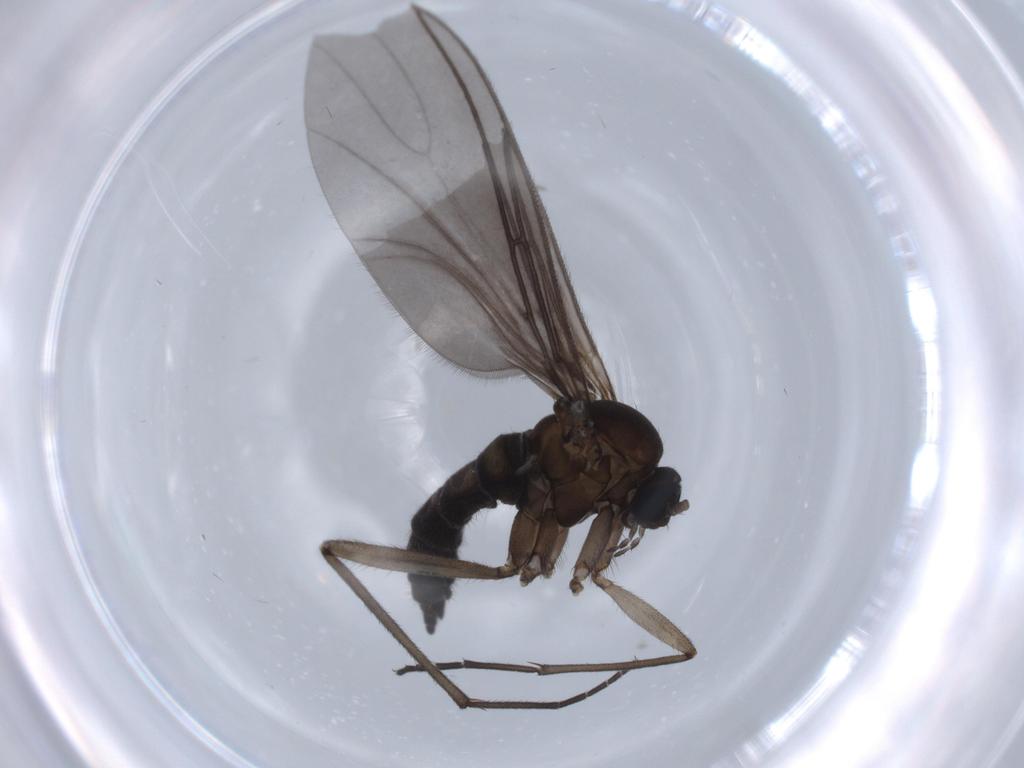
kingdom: Animalia
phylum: Arthropoda
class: Insecta
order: Diptera
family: Sciaridae
